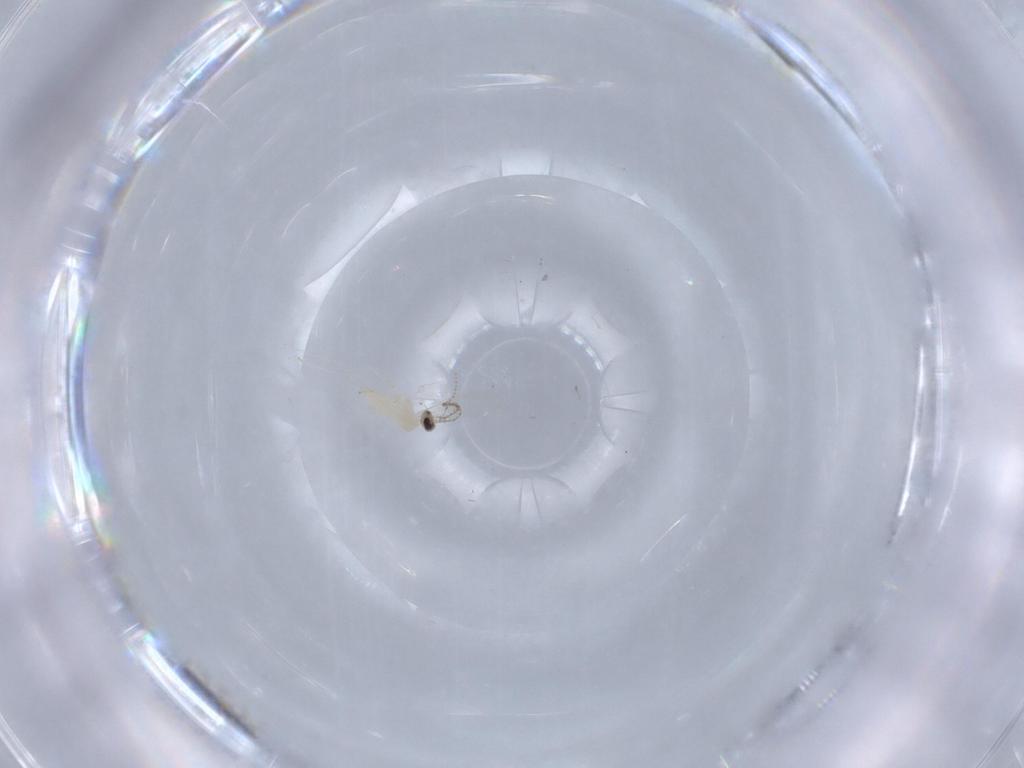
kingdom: Animalia
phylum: Arthropoda
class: Insecta
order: Diptera
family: Cecidomyiidae
